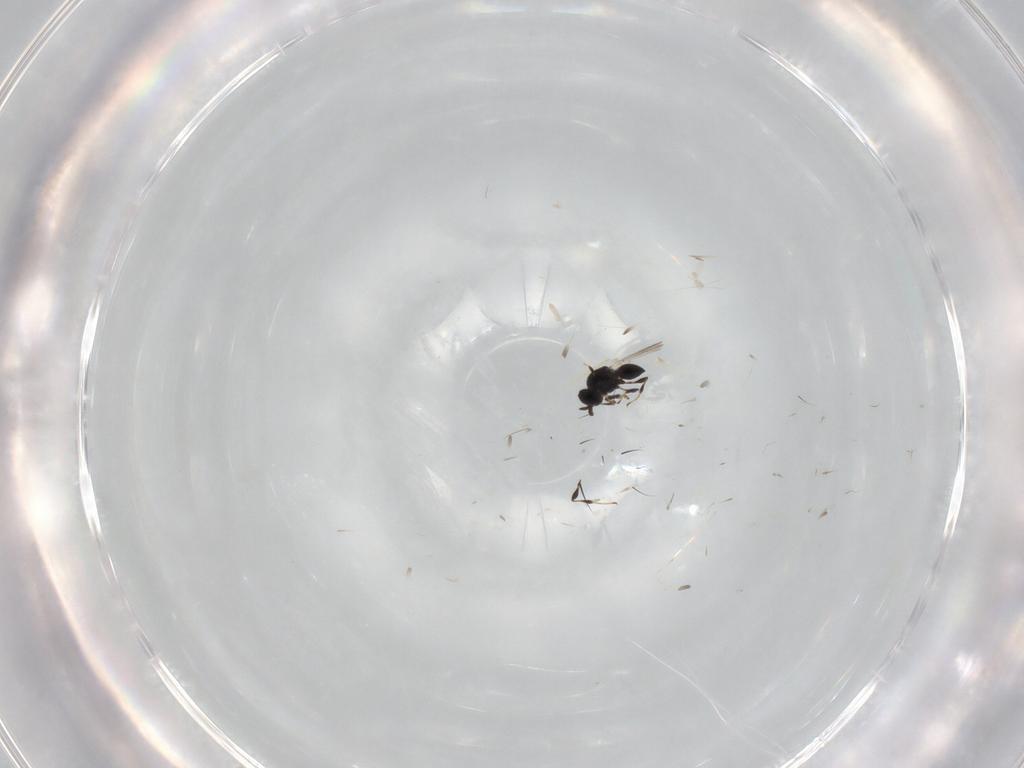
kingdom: Animalia
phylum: Arthropoda
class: Insecta
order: Hymenoptera
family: Platygastridae
